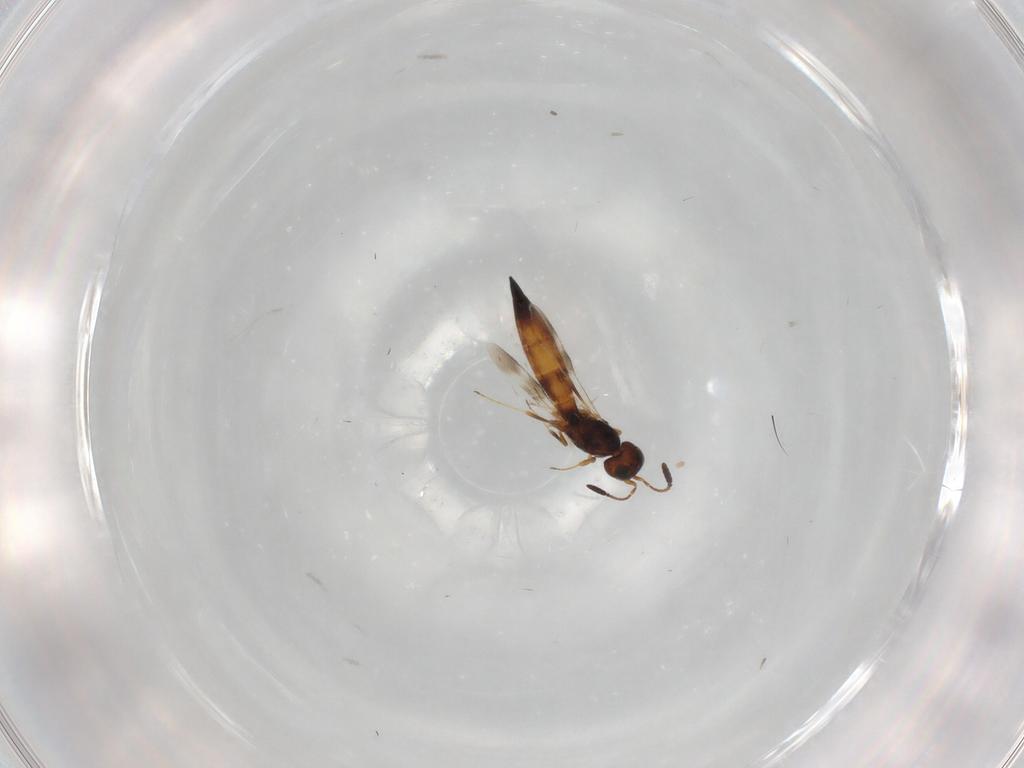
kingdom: Animalia
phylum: Arthropoda
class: Insecta
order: Hymenoptera
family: Scelionidae
